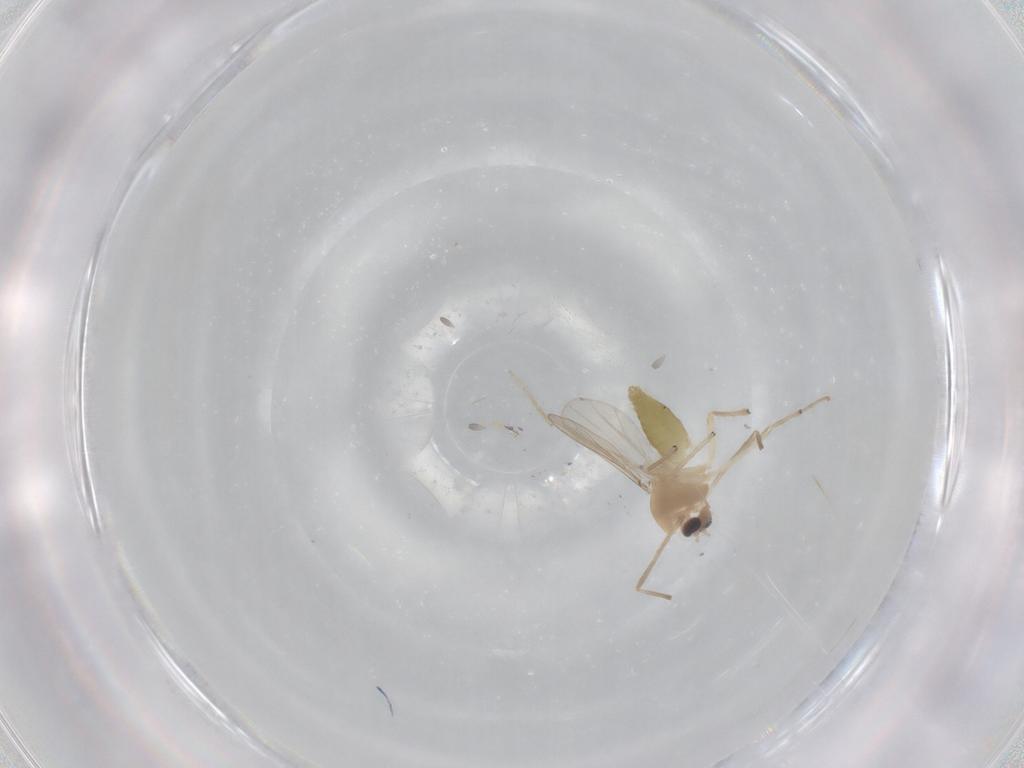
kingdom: Animalia
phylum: Arthropoda
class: Insecta
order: Diptera
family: Chironomidae
